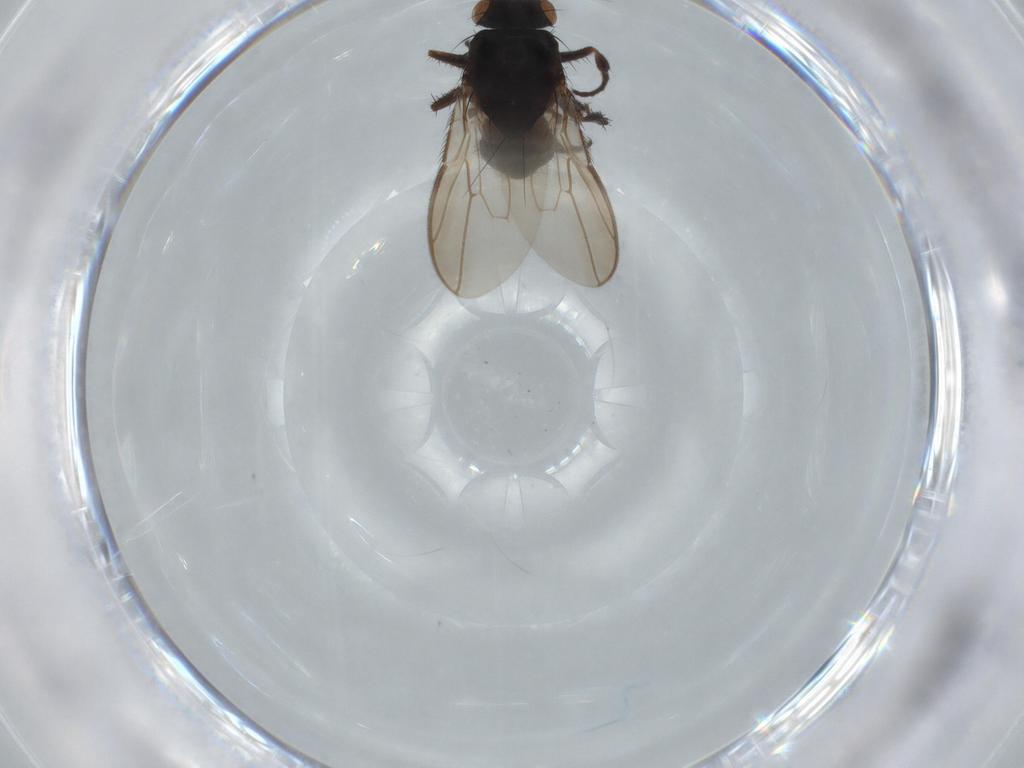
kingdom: Animalia
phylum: Arthropoda
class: Insecta
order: Diptera
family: Sphaeroceridae
